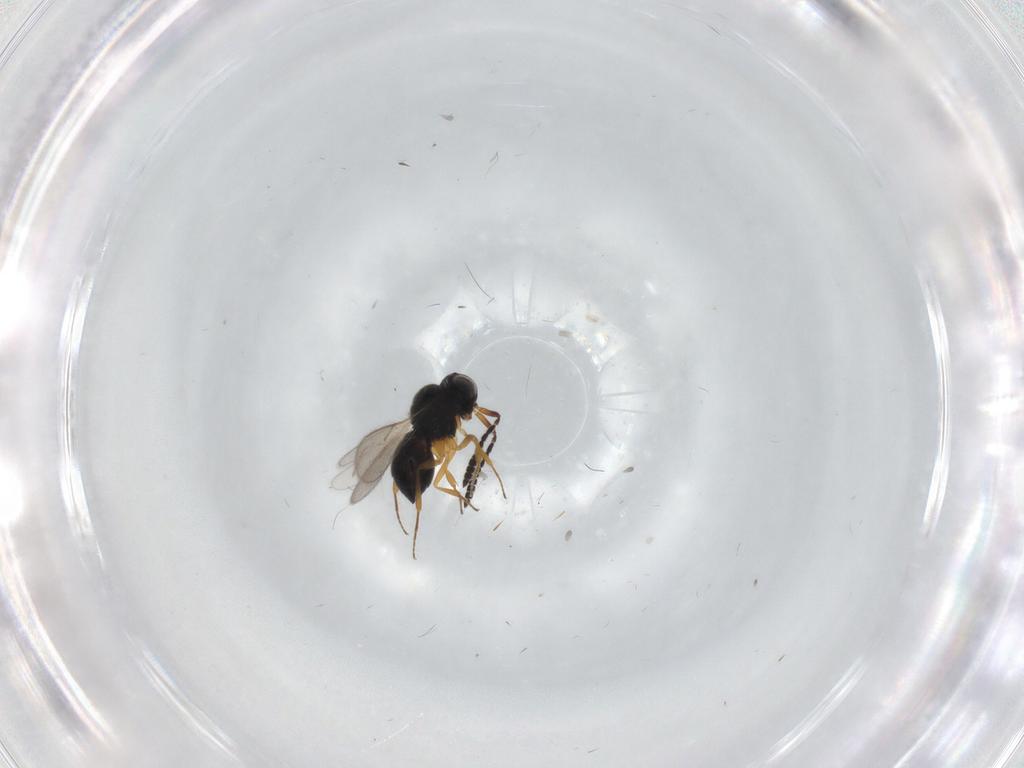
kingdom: Animalia
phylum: Arthropoda
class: Insecta
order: Hymenoptera
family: Scelionidae
